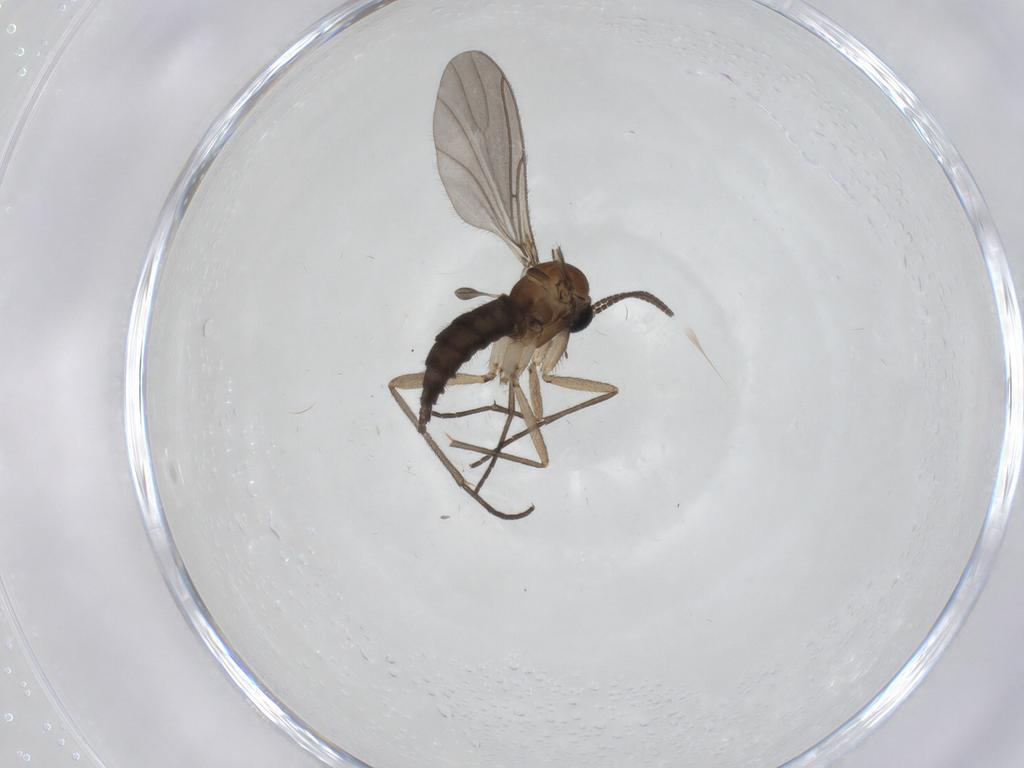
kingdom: Animalia
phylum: Arthropoda
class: Insecta
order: Diptera
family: Sciaridae
